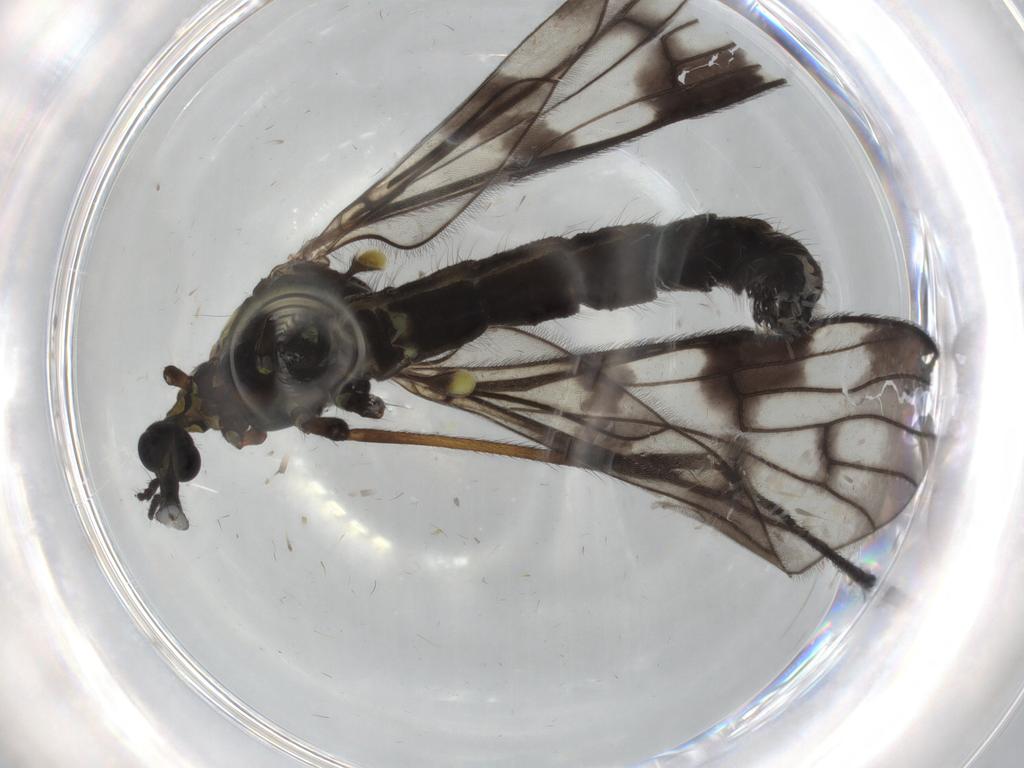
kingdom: Animalia
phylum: Arthropoda
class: Insecta
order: Diptera
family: Limoniidae
